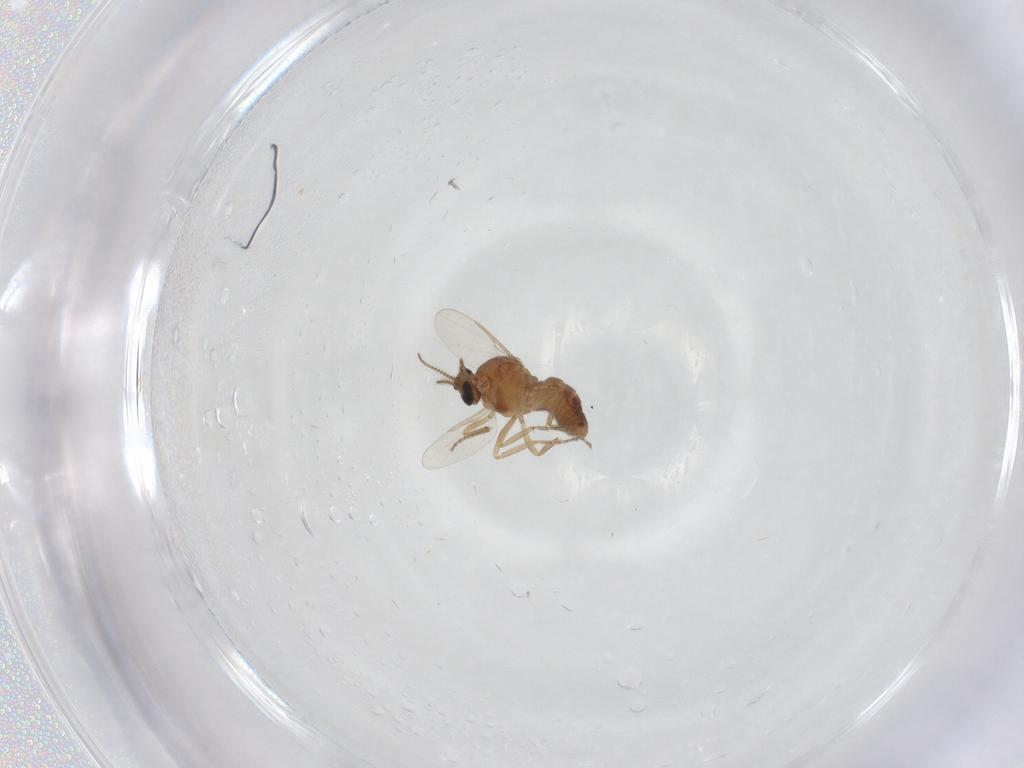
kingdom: Animalia
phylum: Arthropoda
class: Insecta
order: Diptera
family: Ceratopogonidae
